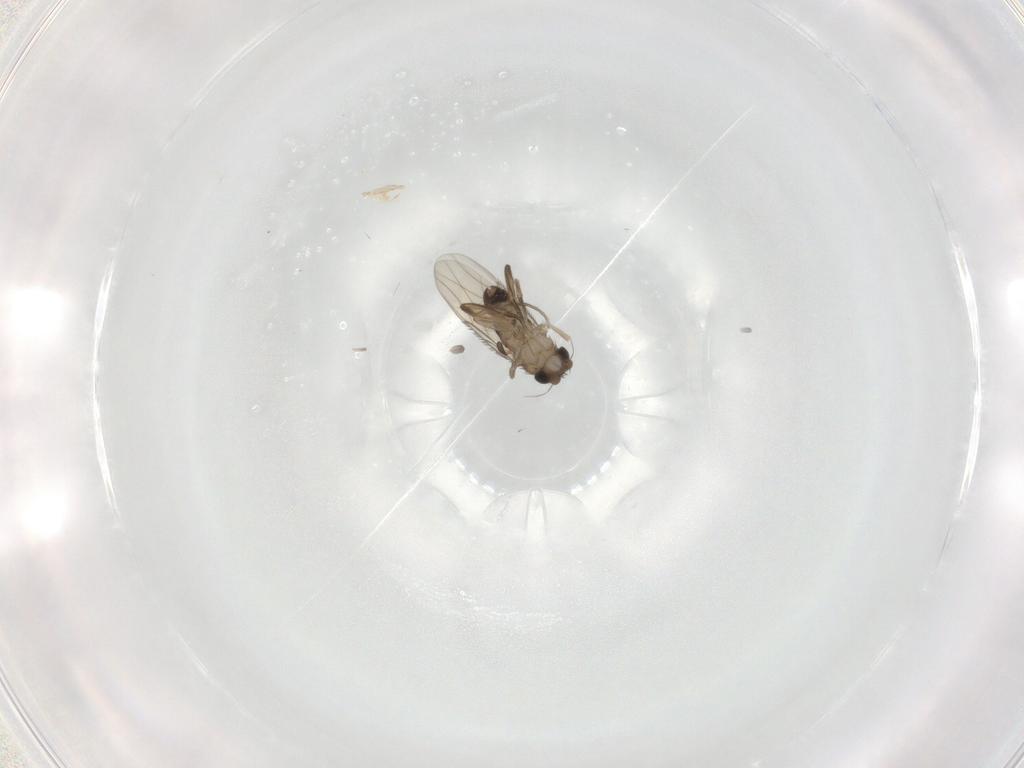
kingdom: Animalia
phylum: Arthropoda
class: Insecta
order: Diptera
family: Phoridae
